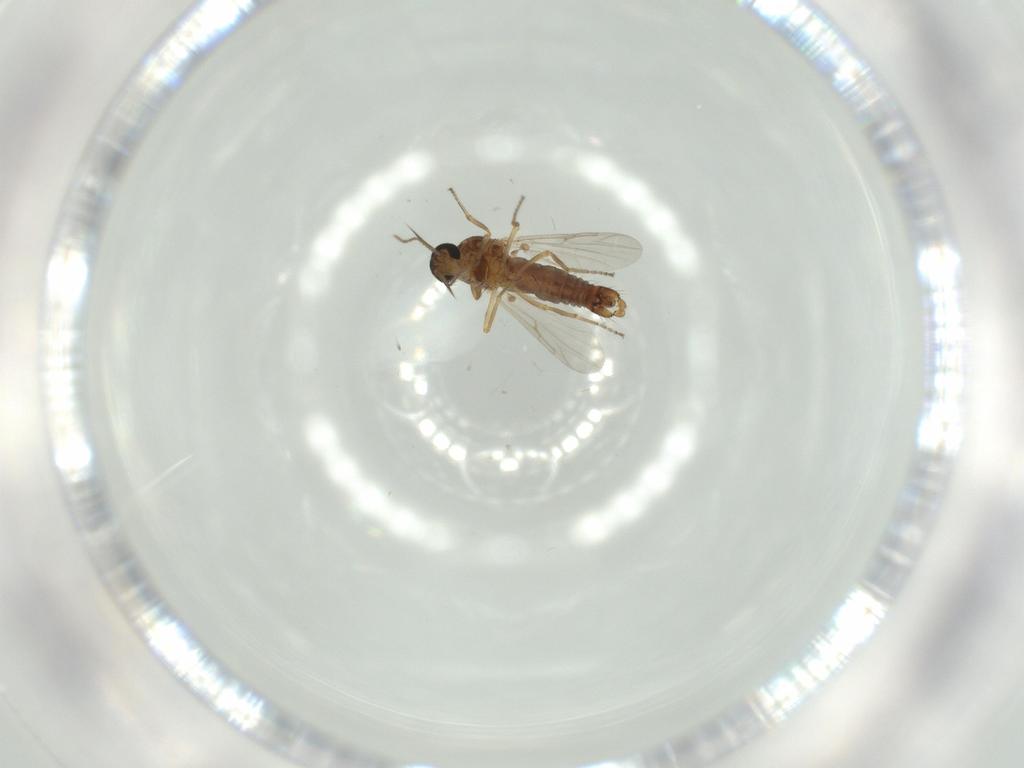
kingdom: Animalia
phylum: Arthropoda
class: Insecta
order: Diptera
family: Ceratopogonidae
